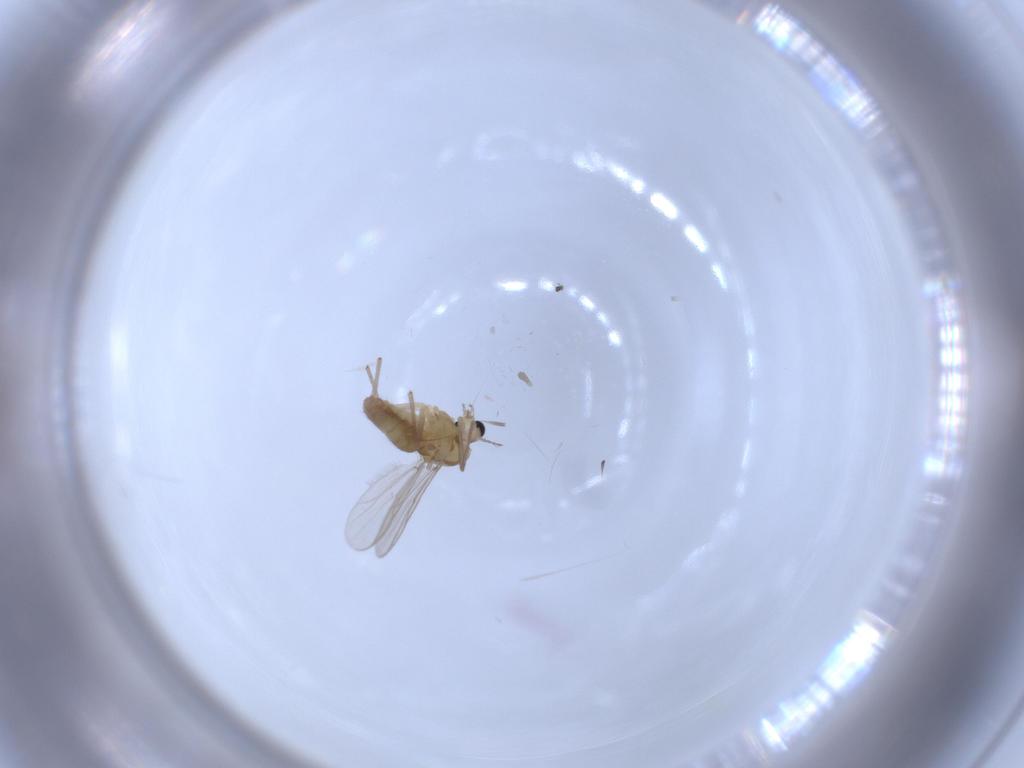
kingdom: Animalia
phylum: Arthropoda
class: Insecta
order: Diptera
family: Chironomidae
